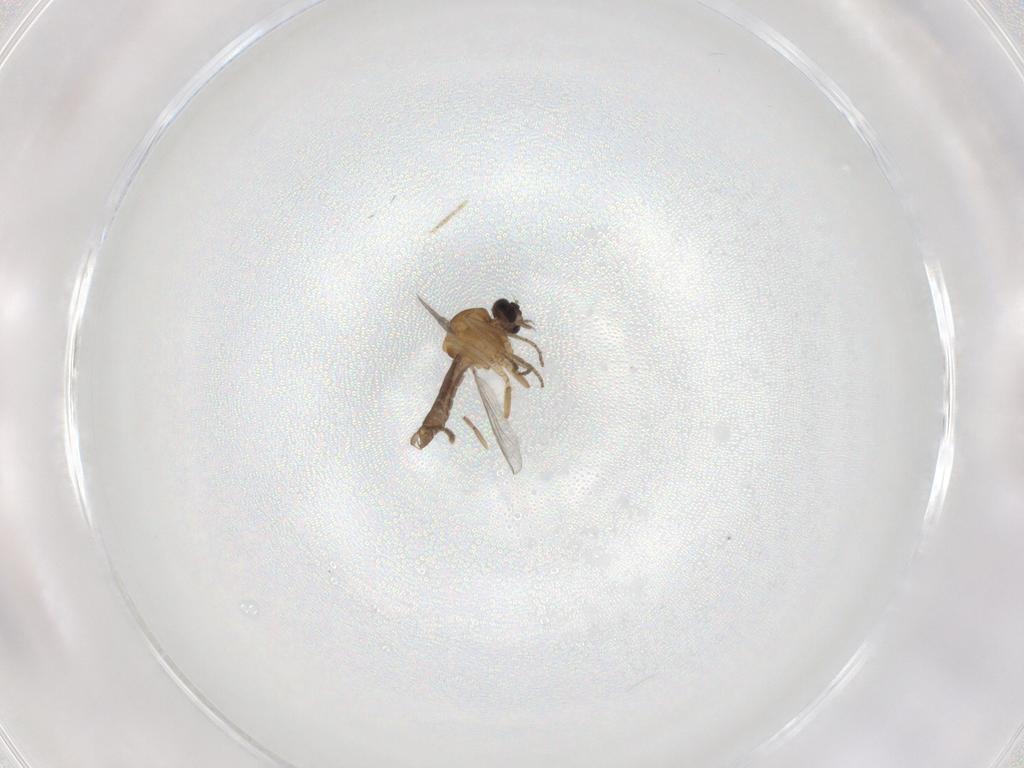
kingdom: Animalia
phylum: Arthropoda
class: Insecta
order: Diptera
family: Ceratopogonidae
